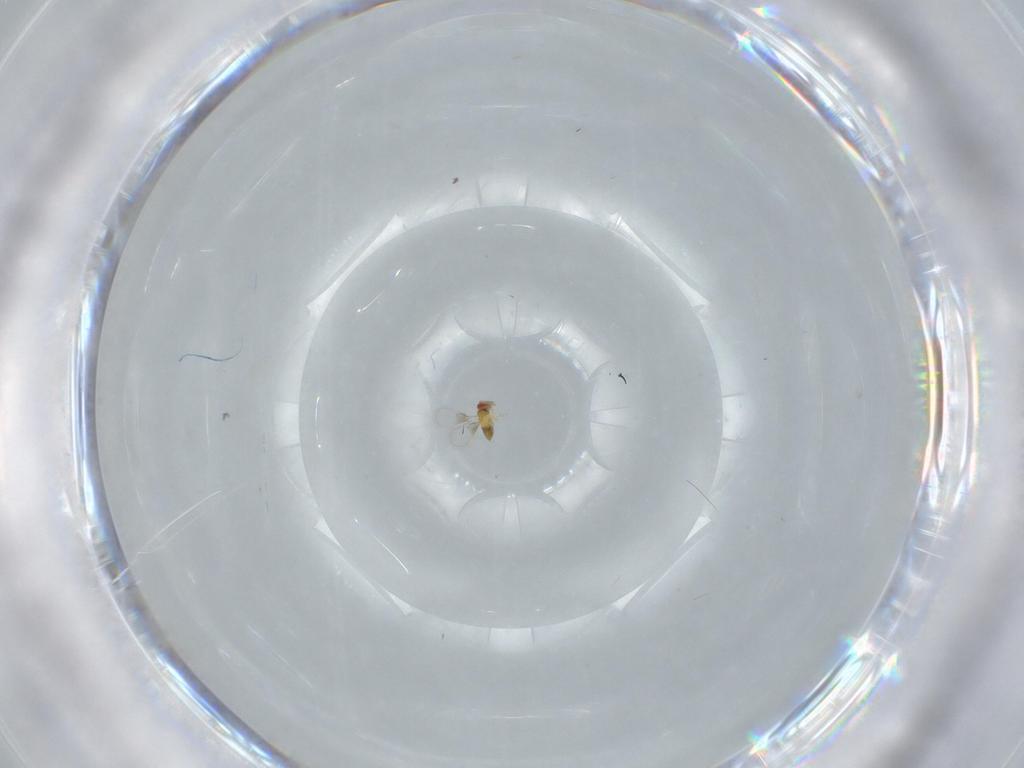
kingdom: Animalia
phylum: Arthropoda
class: Insecta
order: Hymenoptera
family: Trichogrammatidae
